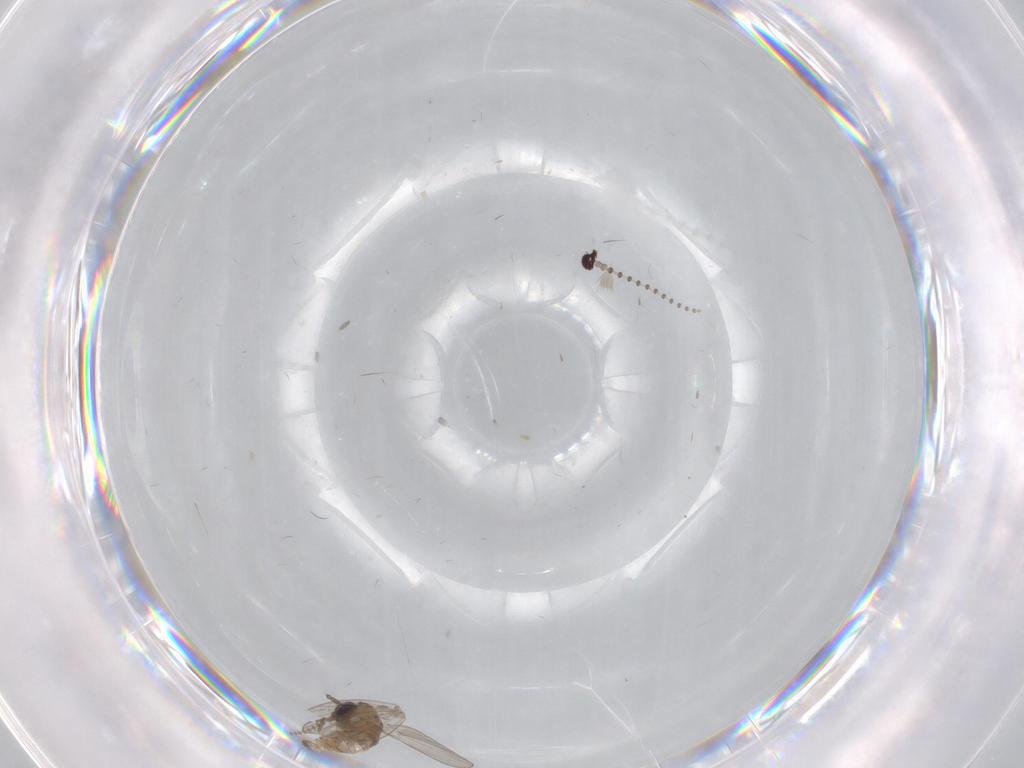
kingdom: Animalia
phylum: Arthropoda
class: Insecta
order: Diptera
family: Psychodidae
